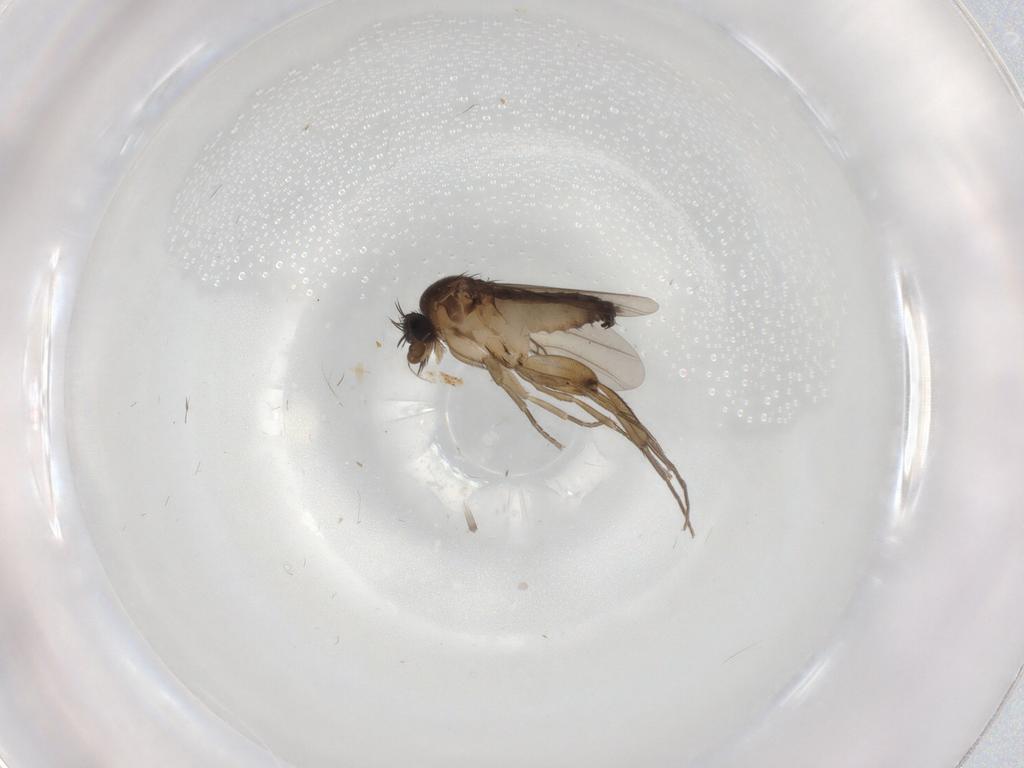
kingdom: Animalia
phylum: Arthropoda
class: Insecta
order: Diptera
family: Phoridae
